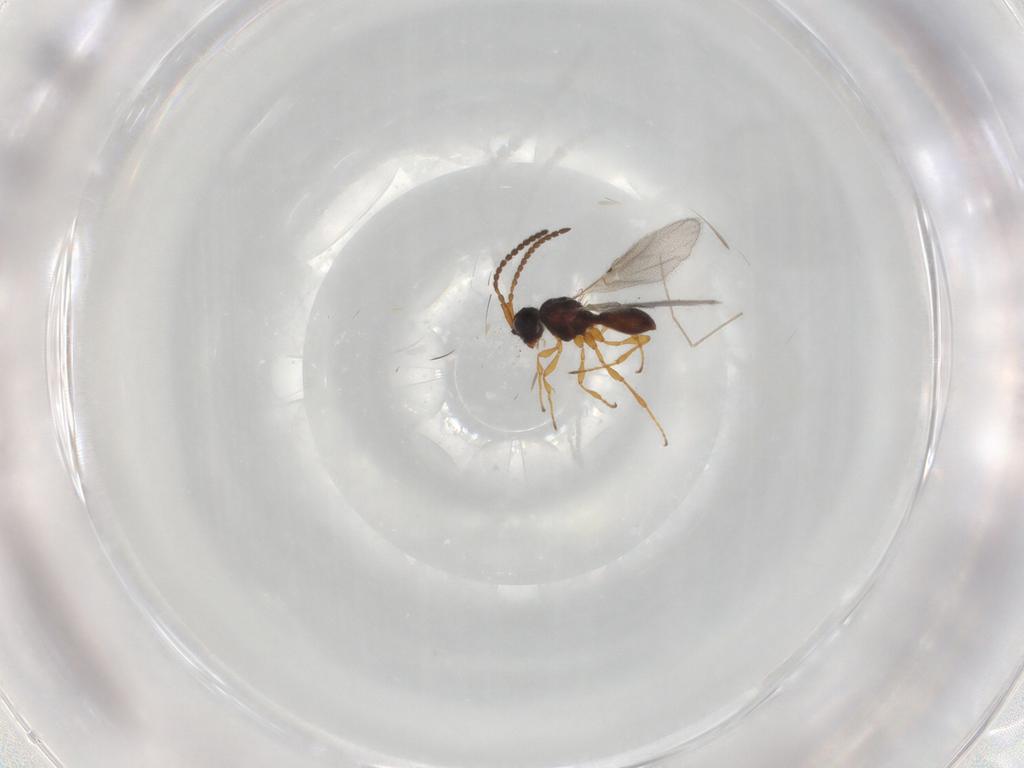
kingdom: Animalia
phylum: Arthropoda
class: Insecta
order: Hymenoptera
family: Diapriidae
